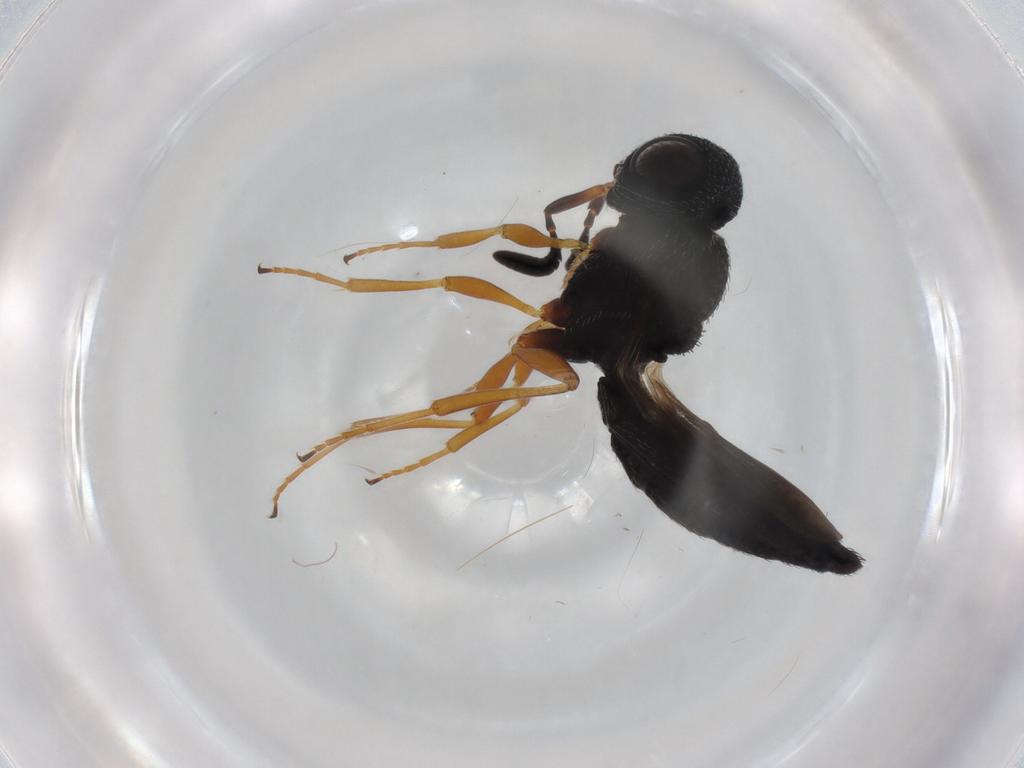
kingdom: Animalia
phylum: Arthropoda
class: Insecta
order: Hymenoptera
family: Scelionidae
